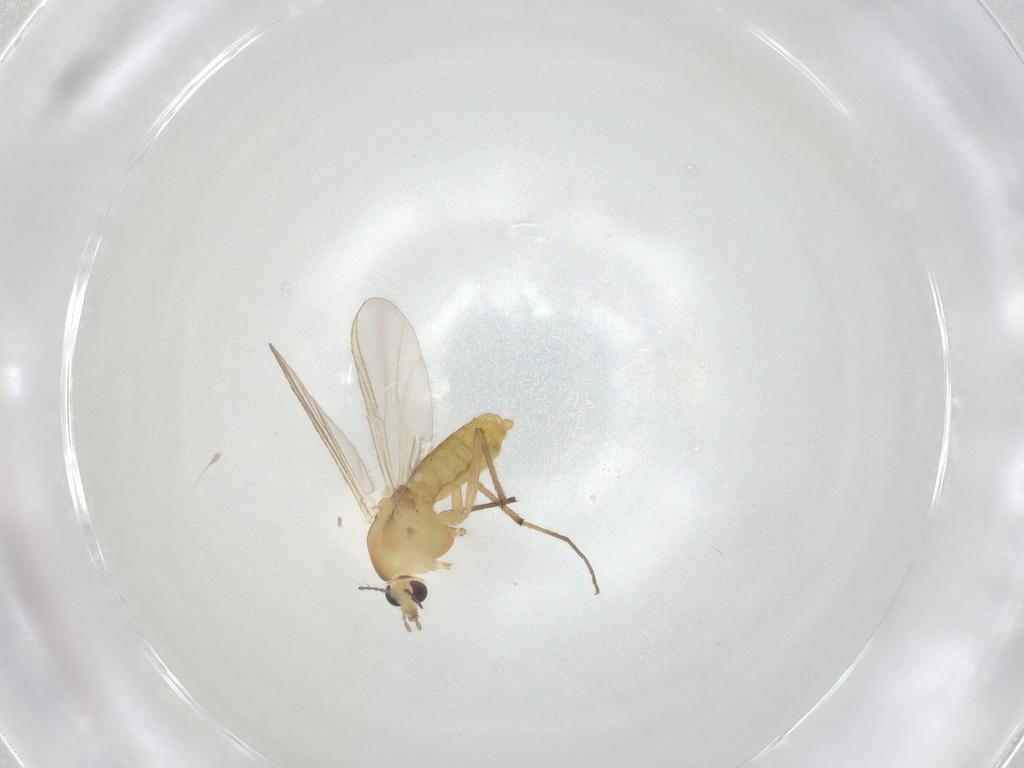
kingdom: Animalia
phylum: Arthropoda
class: Insecta
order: Diptera
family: Chironomidae
